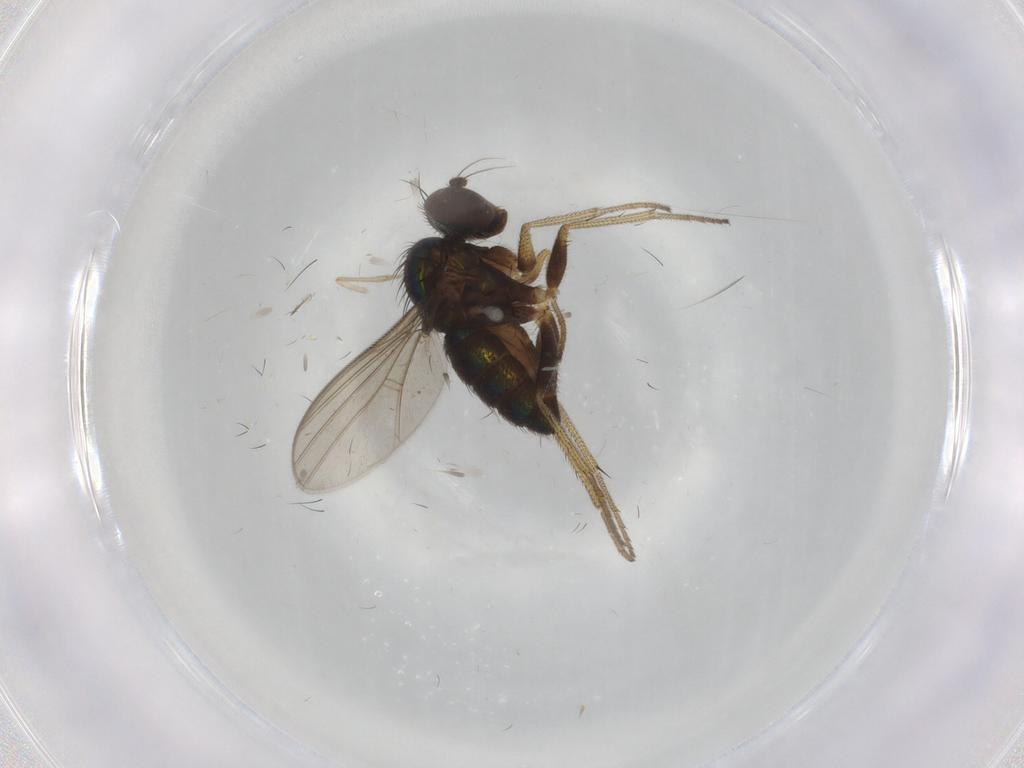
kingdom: Animalia
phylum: Arthropoda
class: Insecta
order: Diptera
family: Dolichopodidae
